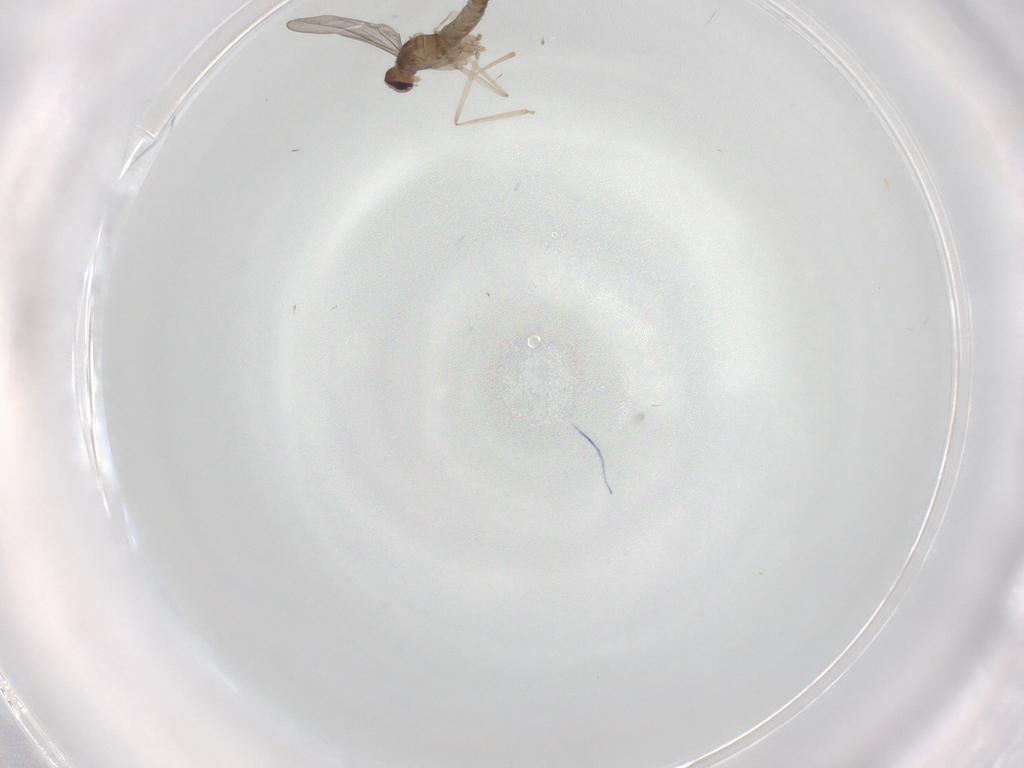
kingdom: Animalia
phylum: Arthropoda
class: Insecta
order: Diptera
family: Cecidomyiidae
